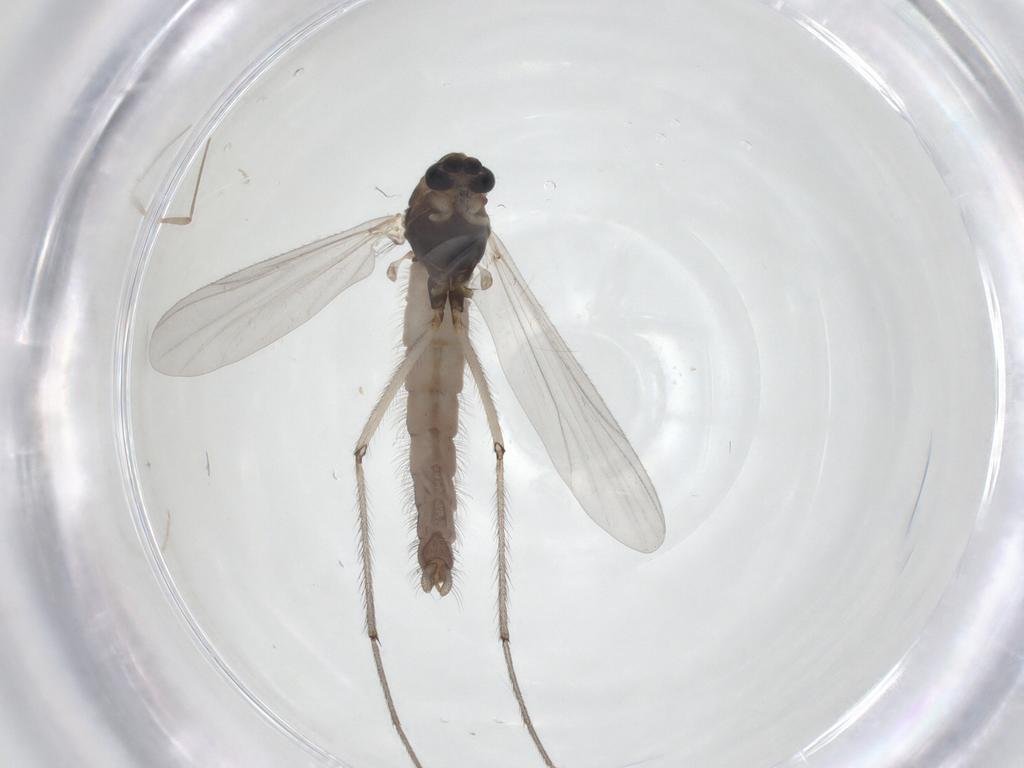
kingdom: Animalia
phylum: Arthropoda
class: Insecta
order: Diptera
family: Chironomidae
